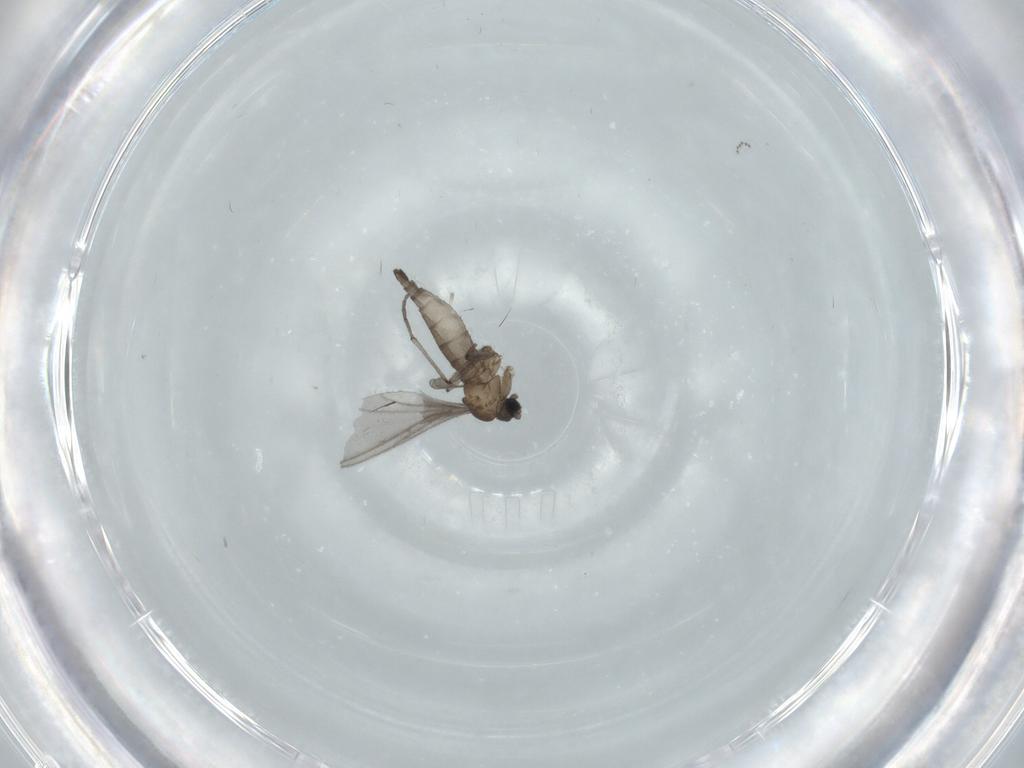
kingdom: Animalia
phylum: Arthropoda
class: Insecta
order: Diptera
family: Sciaridae
